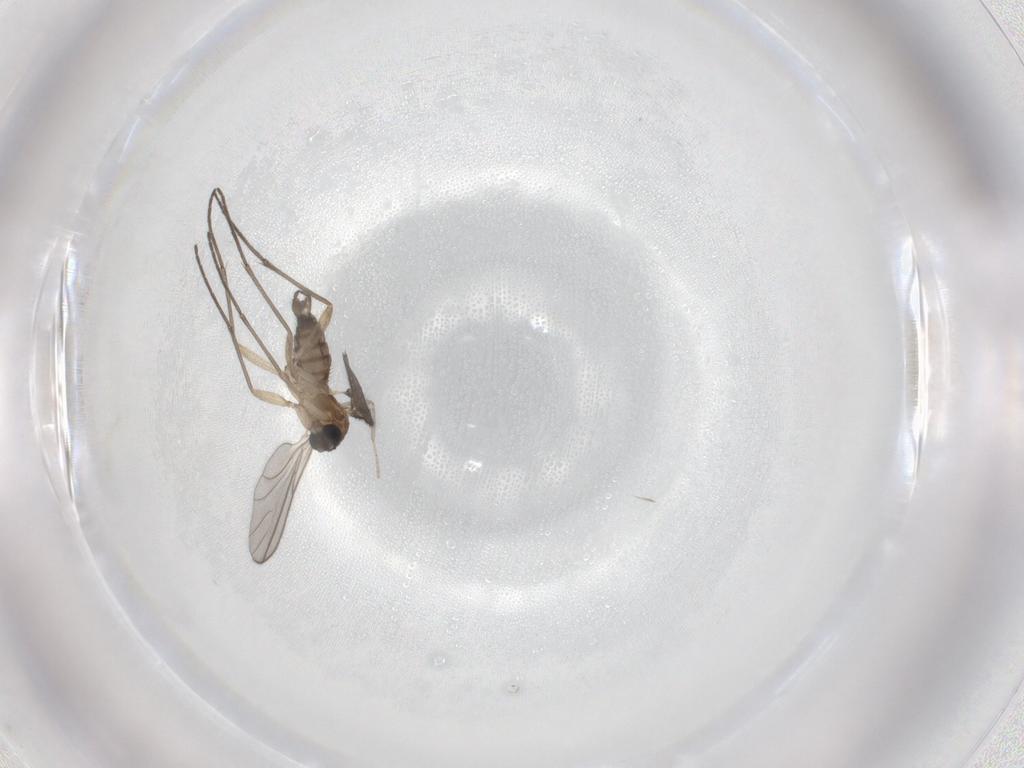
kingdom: Animalia
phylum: Arthropoda
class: Insecta
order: Diptera
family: Sciaridae
